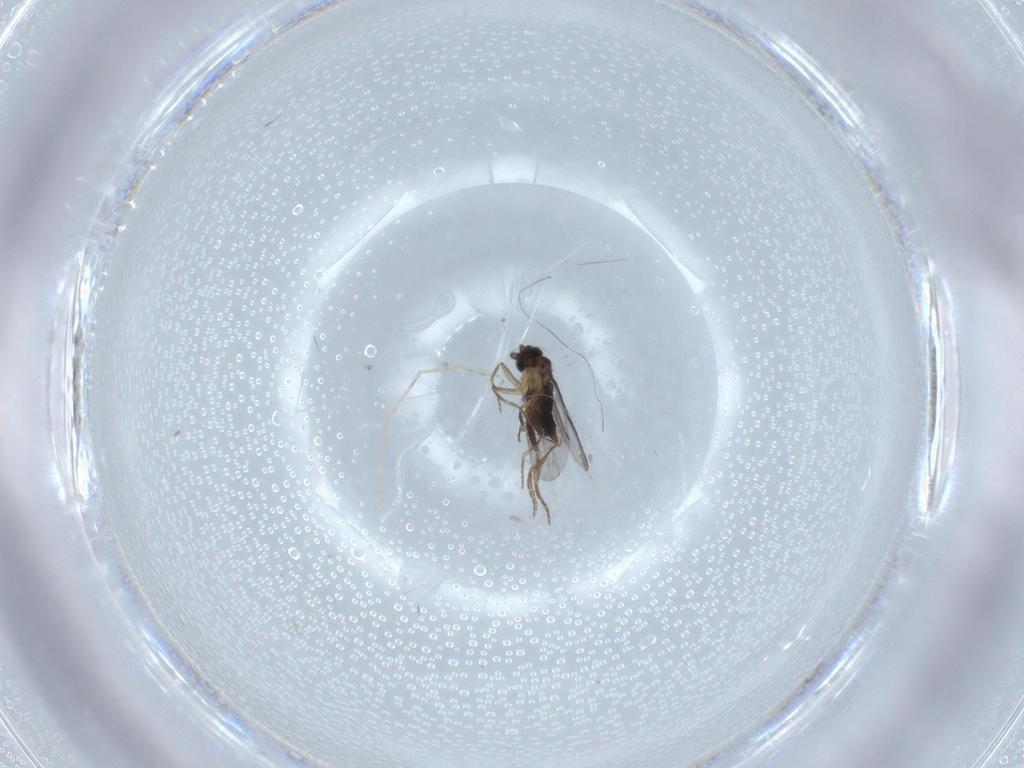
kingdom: Animalia
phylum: Arthropoda
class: Insecta
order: Diptera
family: Chironomidae
